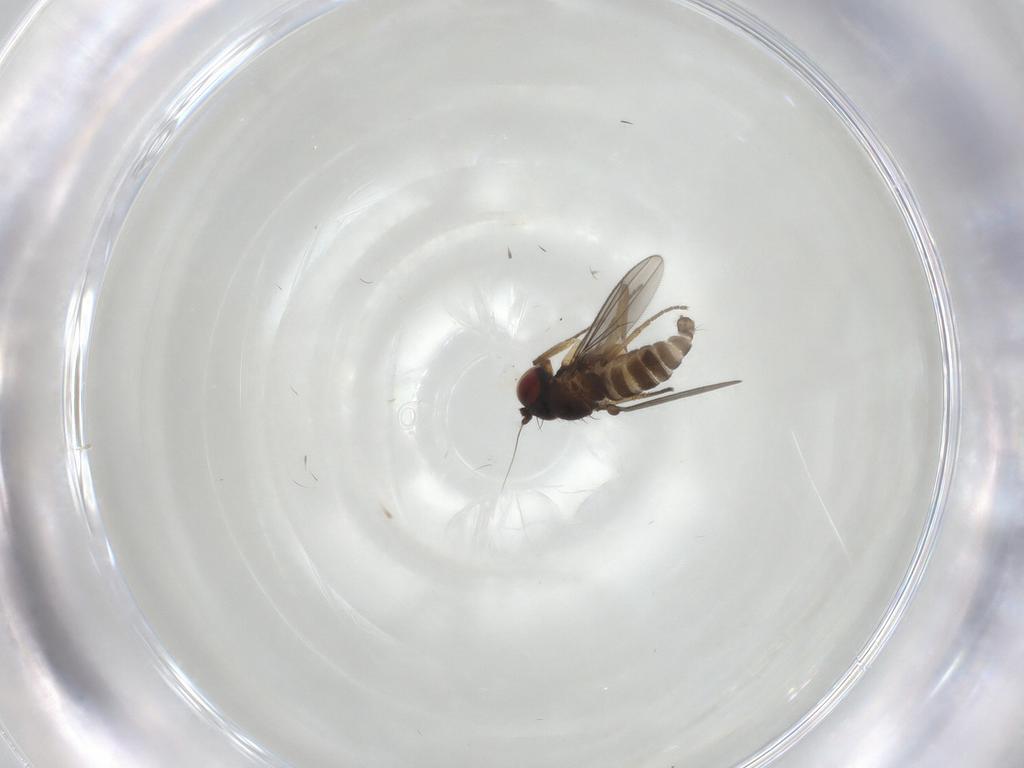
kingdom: Animalia
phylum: Arthropoda
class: Insecta
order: Diptera
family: Dolichopodidae
